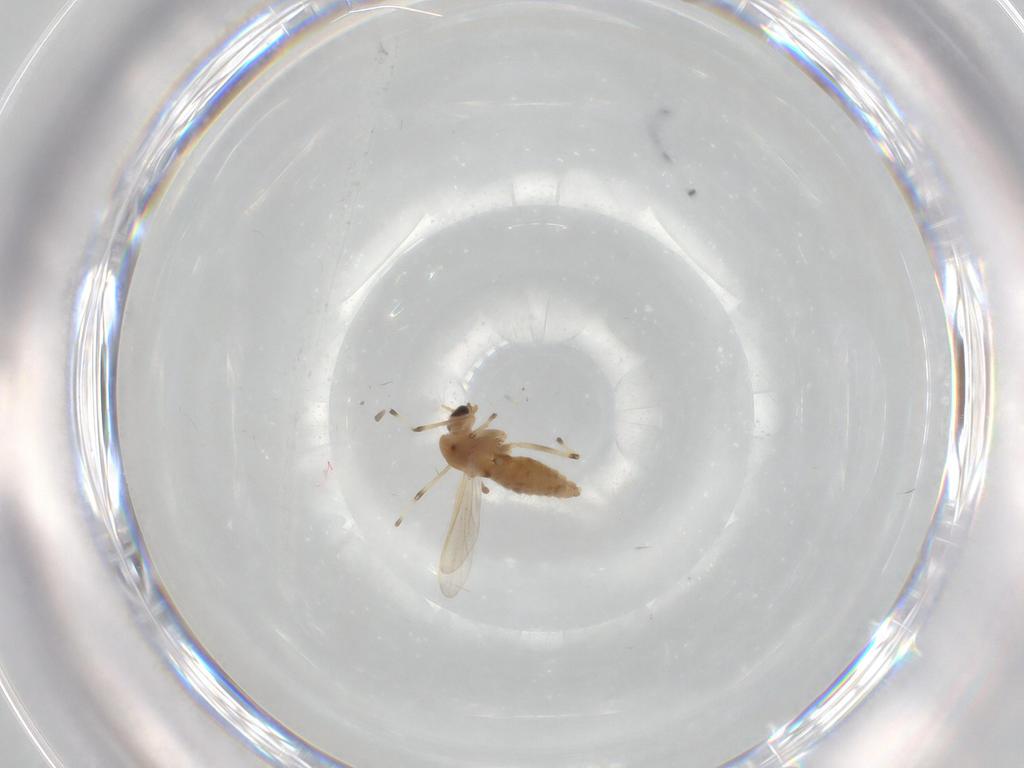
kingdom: Animalia
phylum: Arthropoda
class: Insecta
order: Diptera
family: Chironomidae
